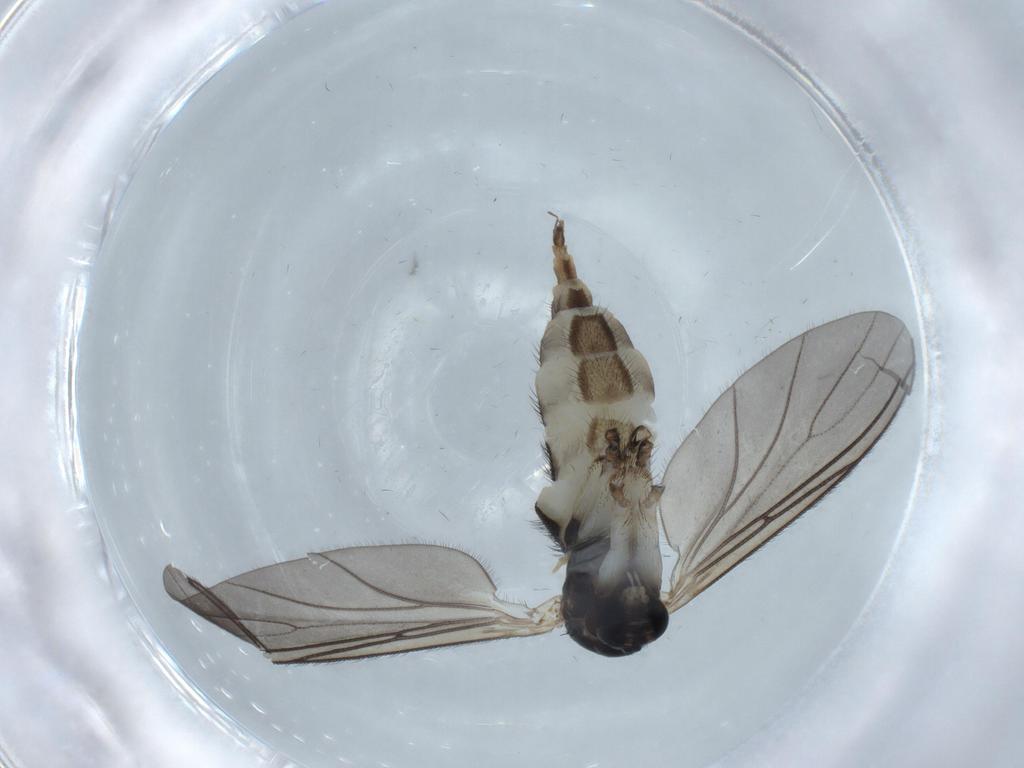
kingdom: Animalia
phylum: Arthropoda
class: Insecta
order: Diptera
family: Sciaridae
